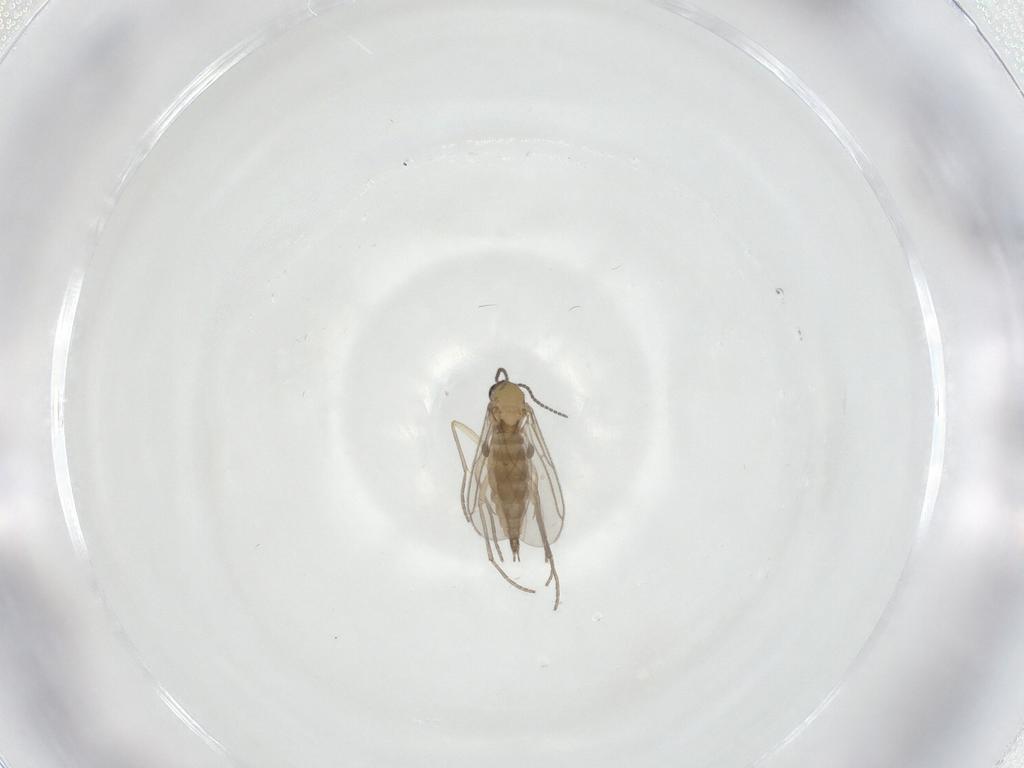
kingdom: Animalia
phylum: Arthropoda
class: Insecta
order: Diptera
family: Sciaridae
